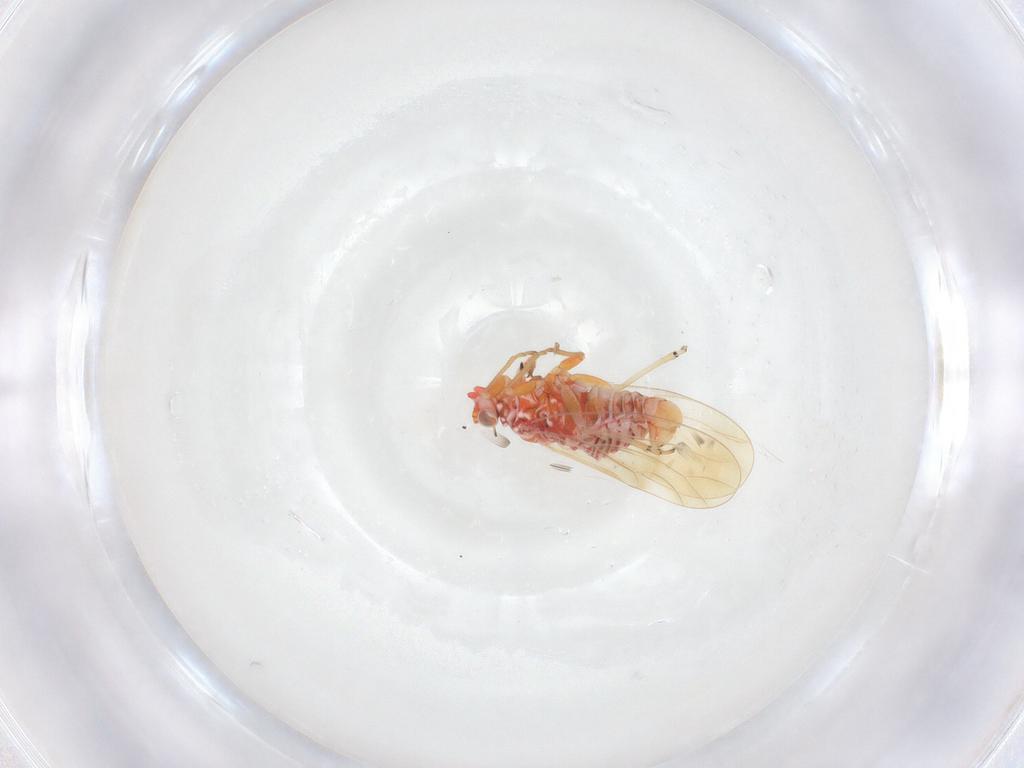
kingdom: Animalia
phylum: Arthropoda
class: Insecta
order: Hemiptera
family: Psyllidae
